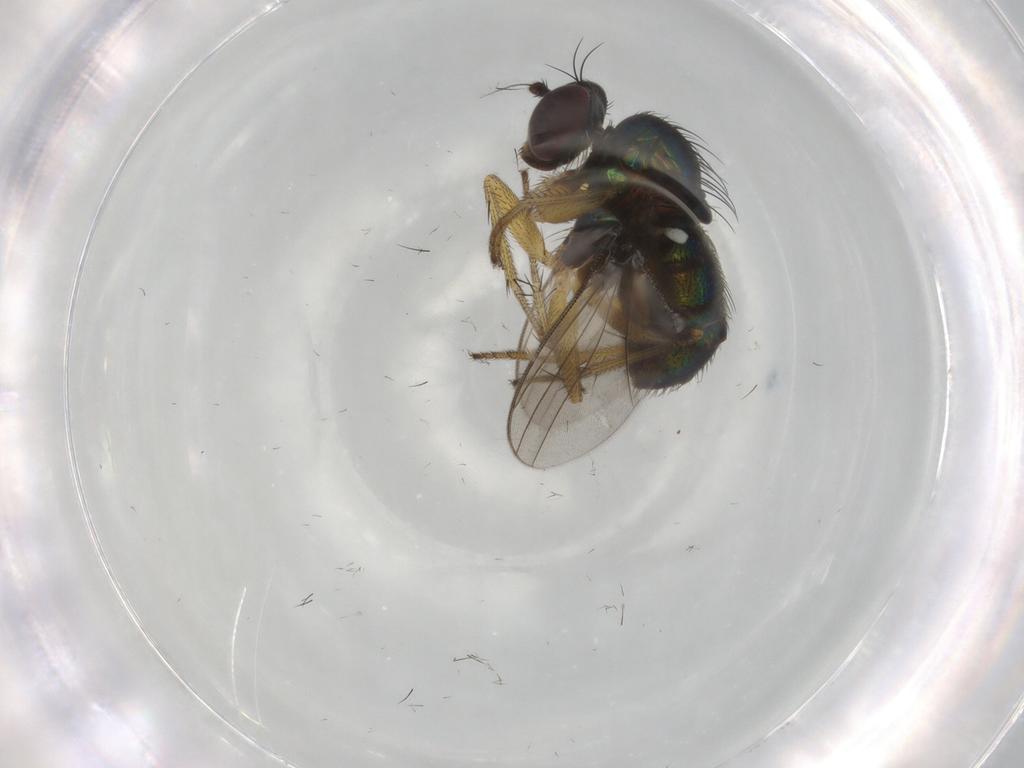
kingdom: Animalia
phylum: Arthropoda
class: Insecta
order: Diptera
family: Dolichopodidae
